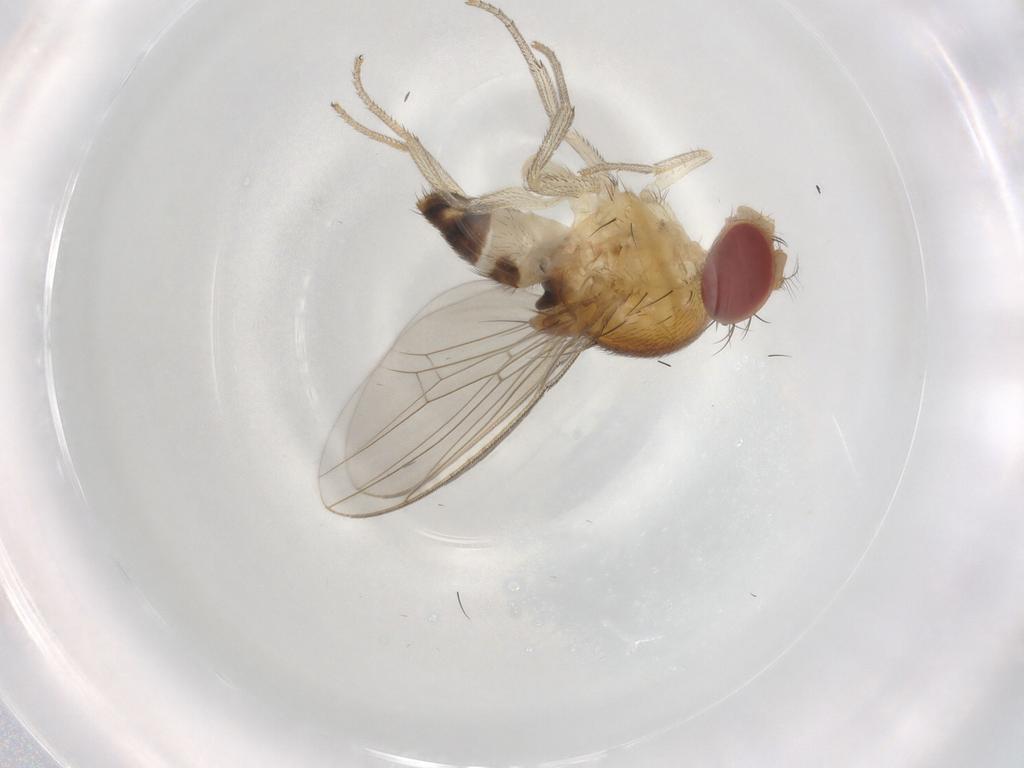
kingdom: Animalia
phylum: Arthropoda
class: Insecta
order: Diptera
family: Drosophilidae
